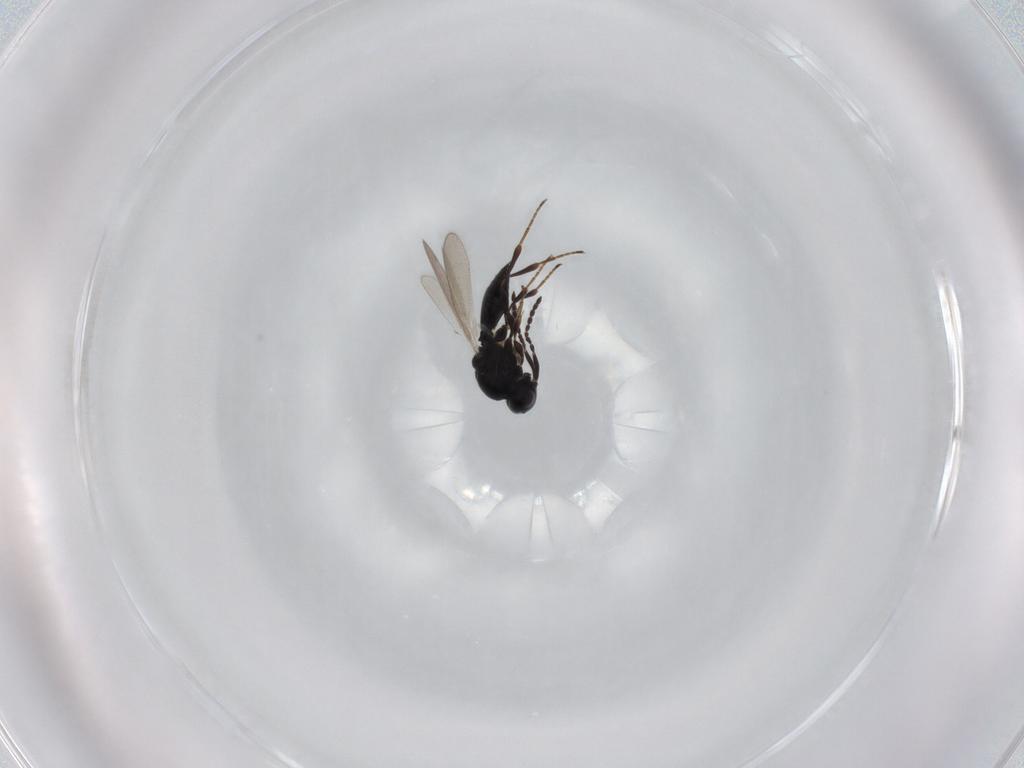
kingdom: Animalia
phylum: Arthropoda
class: Insecta
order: Hymenoptera
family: Platygastridae
